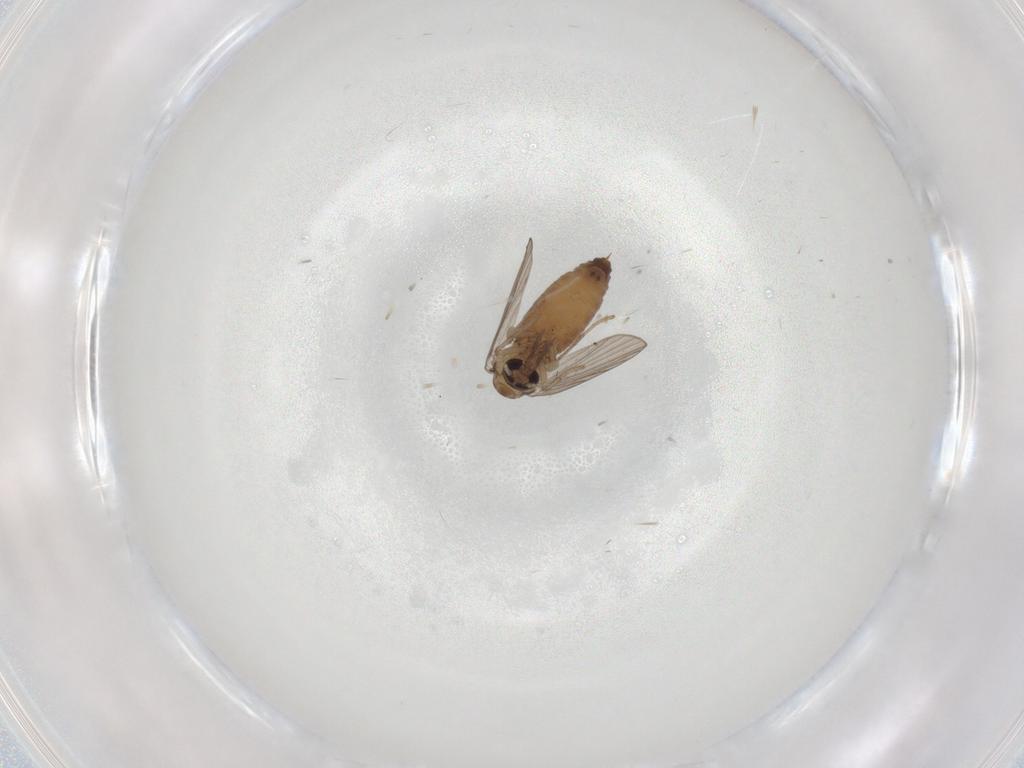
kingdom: Animalia
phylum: Arthropoda
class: Insecta
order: Diptera
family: Psychodidae
